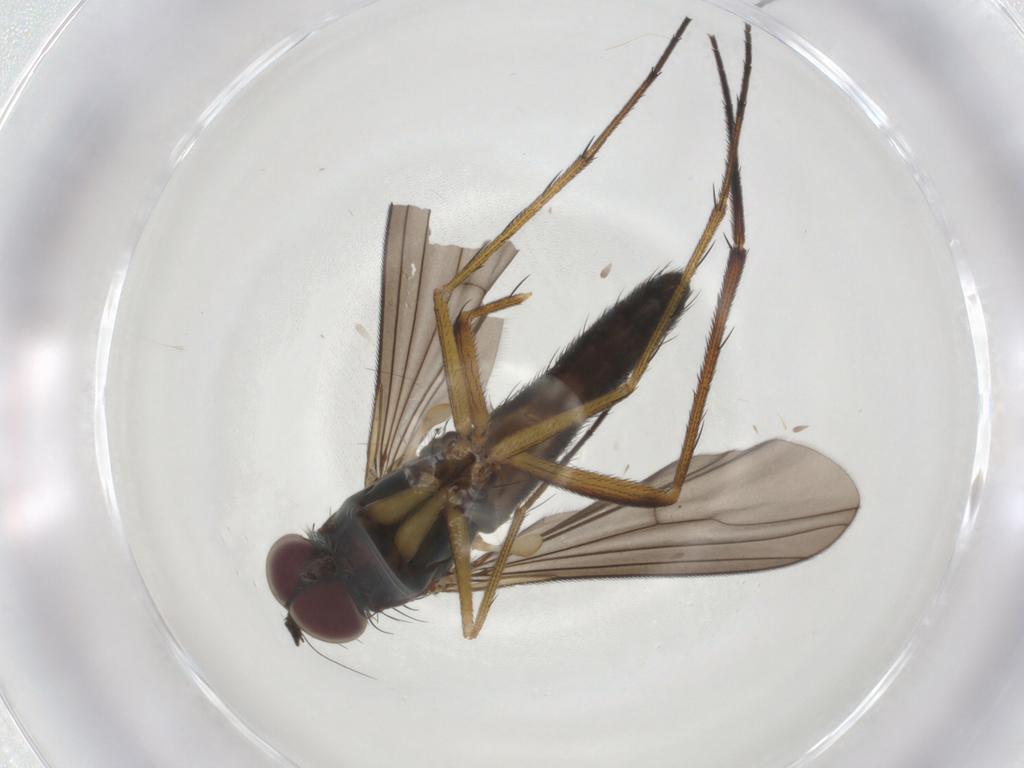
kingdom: Animalia
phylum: Arthropoda
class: Insecta
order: Diptera
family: Dolichopodidae
